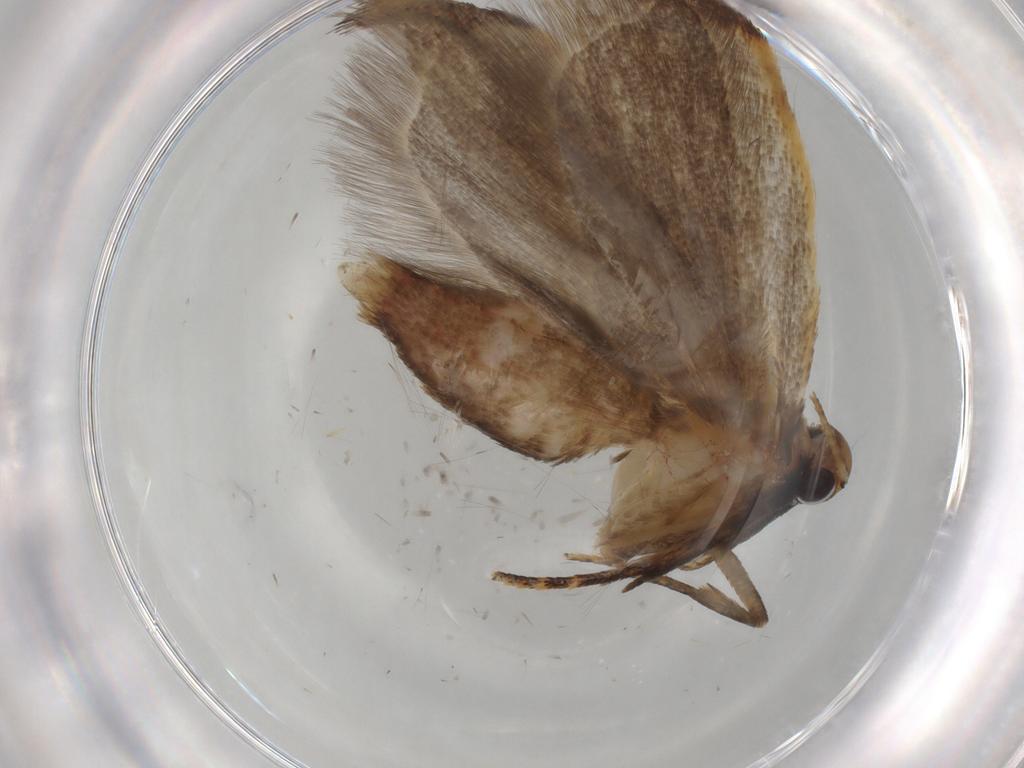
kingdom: Animalia
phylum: Arthropoda
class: Insecta
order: Lepidoptera
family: Gelechiidae
